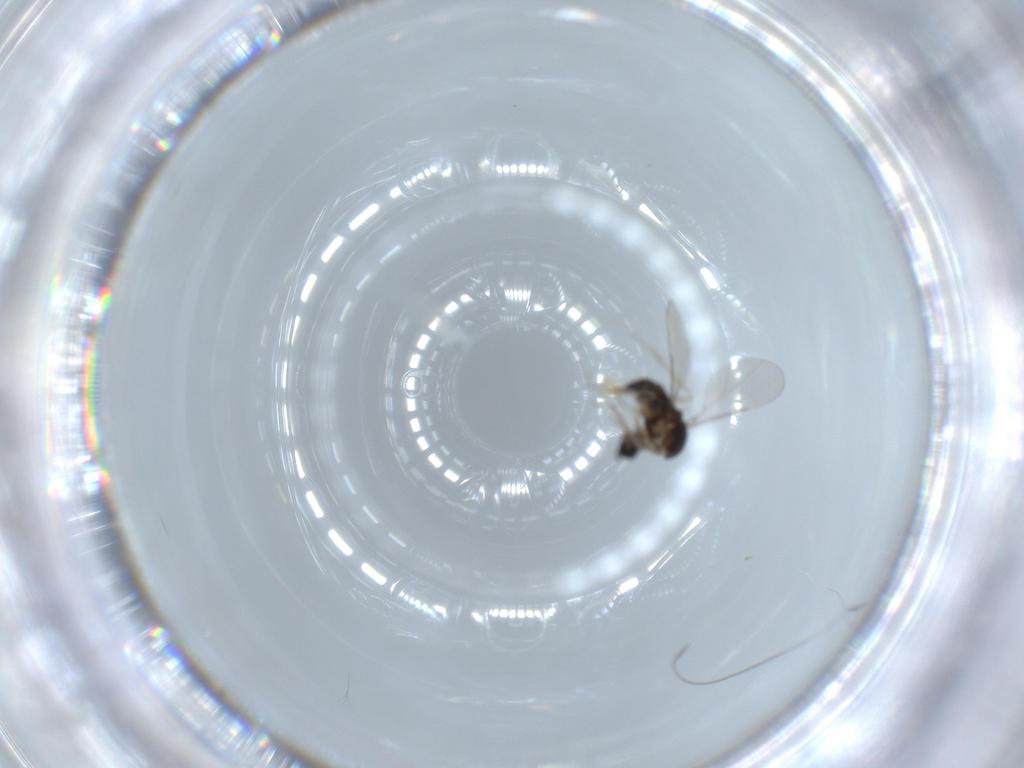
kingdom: Animalia
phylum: Arthropoda
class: Insecta
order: Diptera
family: Cecidomyiidae
